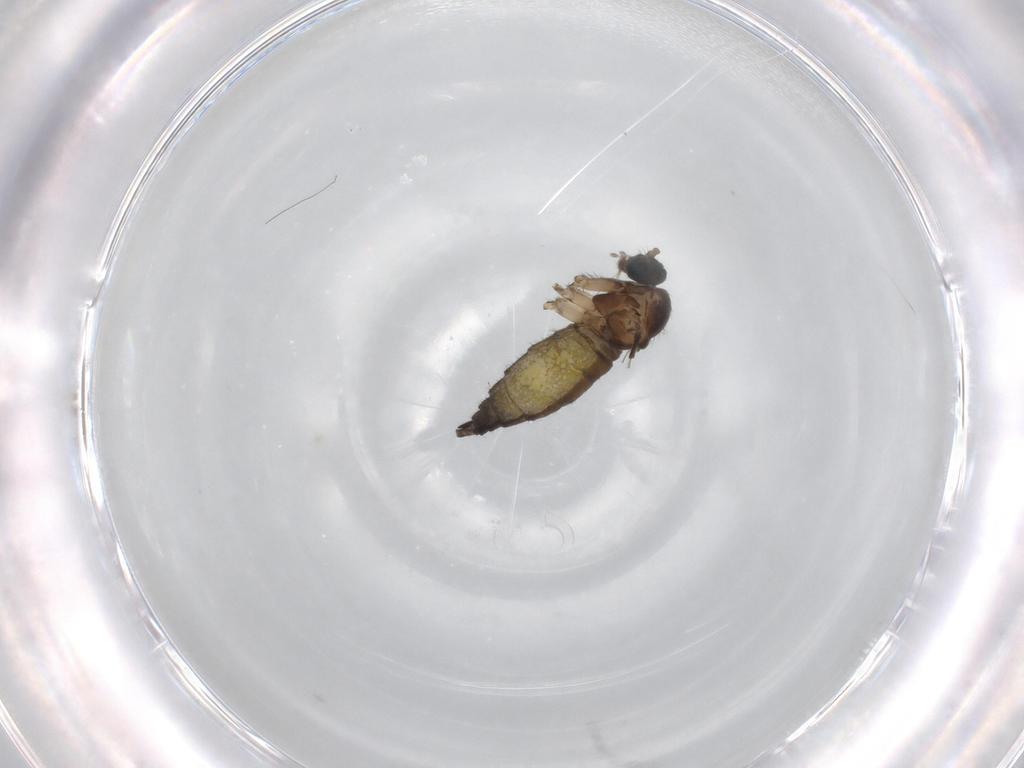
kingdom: Animalia
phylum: Arthropoda
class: Insecta
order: Diptera
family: Sciaridae
